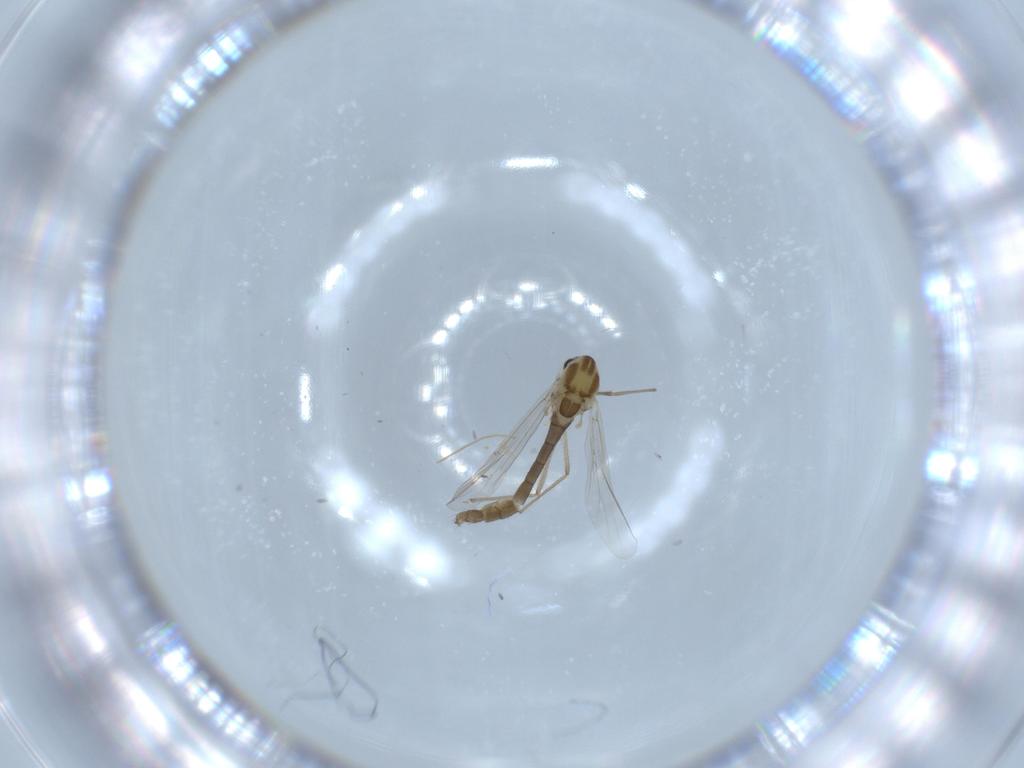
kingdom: Animalia
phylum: Arthropoda
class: Insecta
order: Diptera
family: Chironomidae
